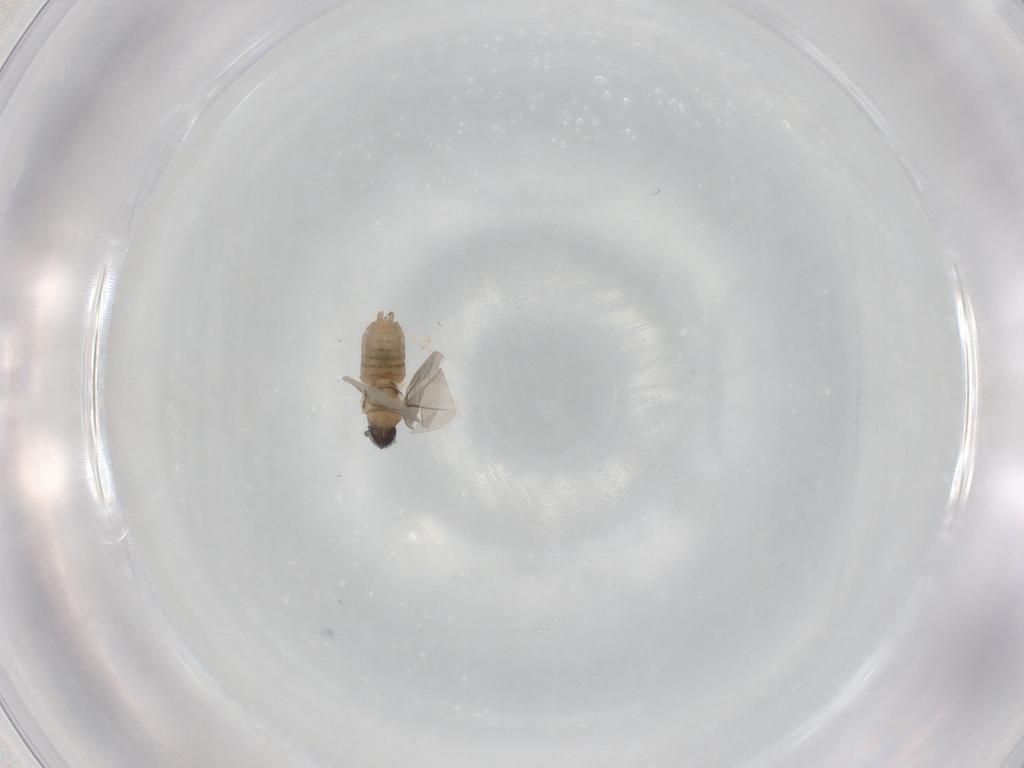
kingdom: Animalia
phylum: Arthropoda
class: Insecta
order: Diptera
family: Cecidomyiidae
